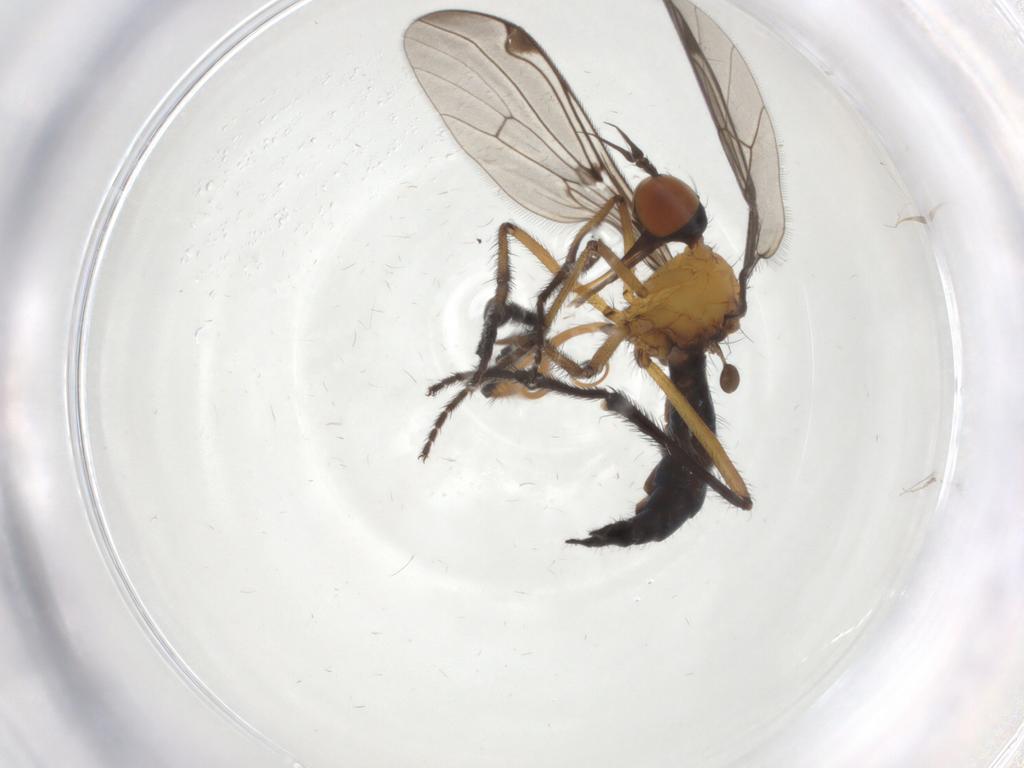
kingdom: Animalia
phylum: Arthropoda
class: Insecta
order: Diptera
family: Empididae
